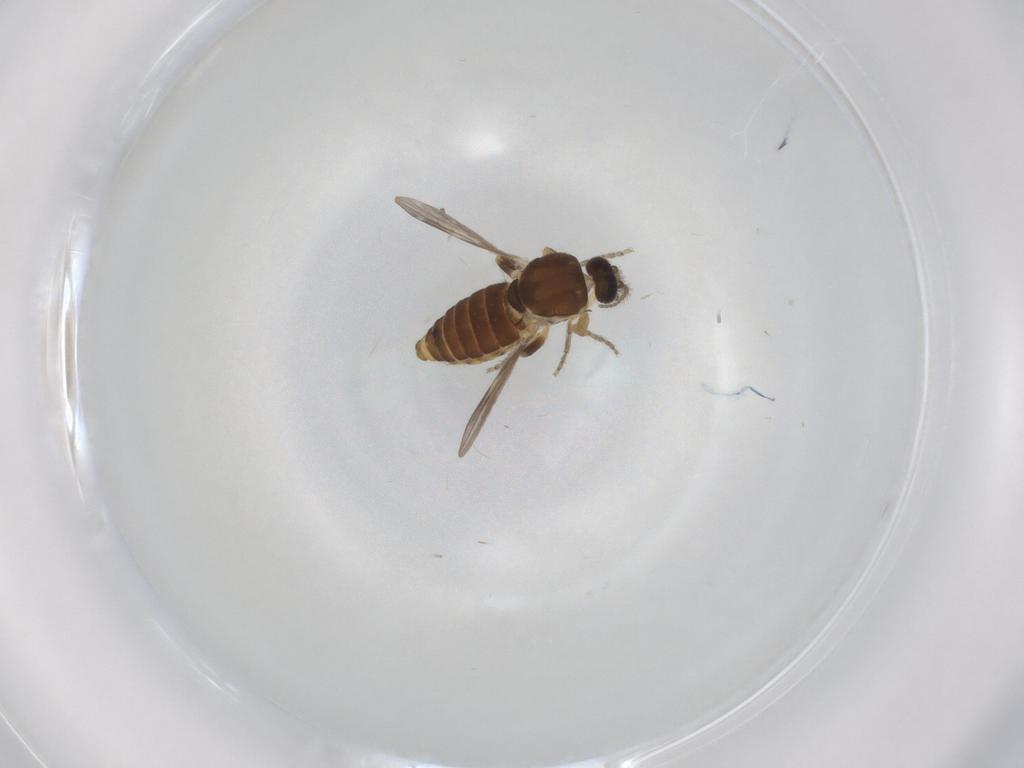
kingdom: Animalia
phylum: Arthropoda
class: Insecta
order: Diptera
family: Ceratopogonidae
